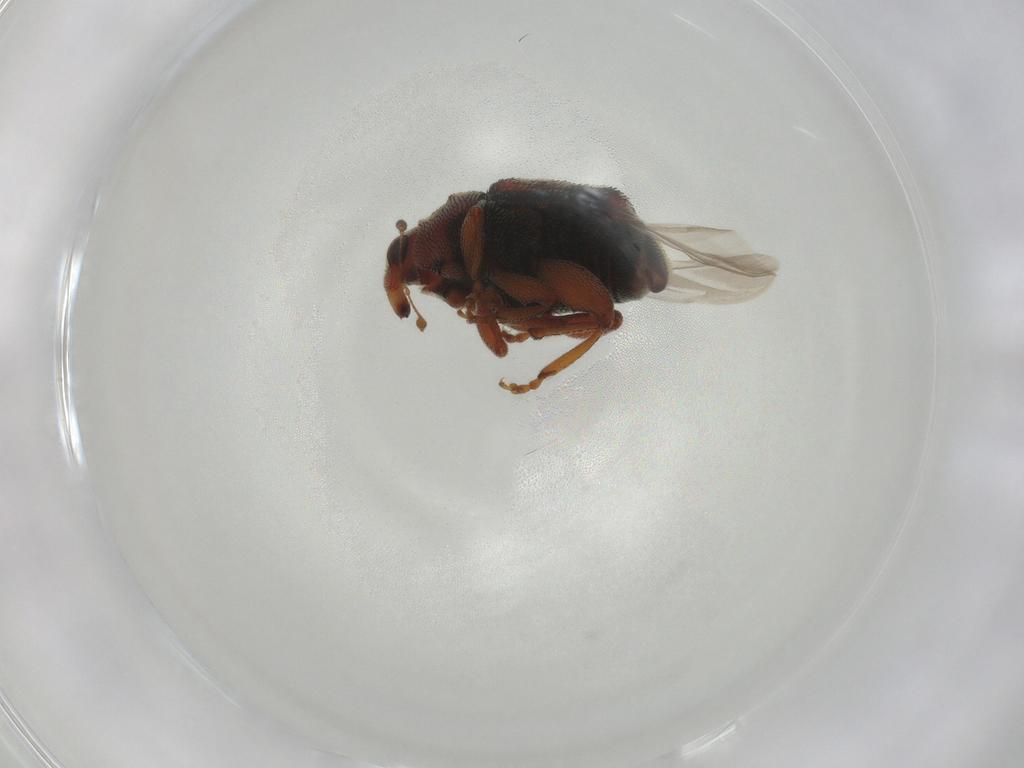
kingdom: Animalia
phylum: Arthropoda
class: Insecta
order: Coleoptera
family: Curculionidae
